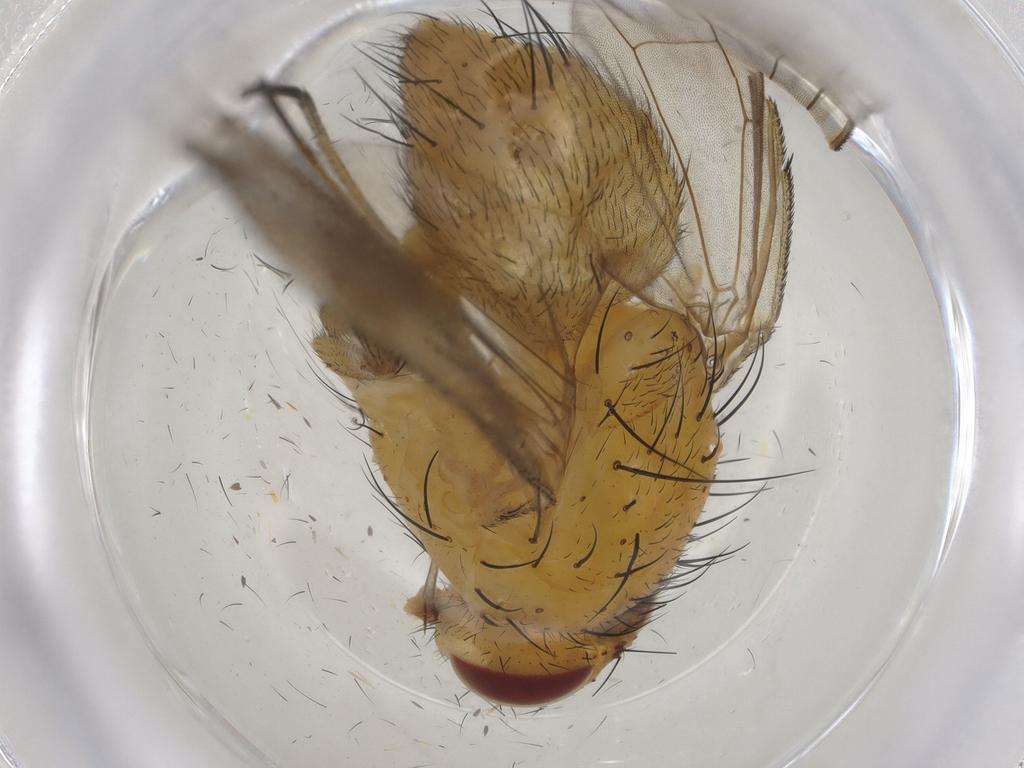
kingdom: Animalia
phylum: Arthropoda
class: Insecta
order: Diptera
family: Muscidae
